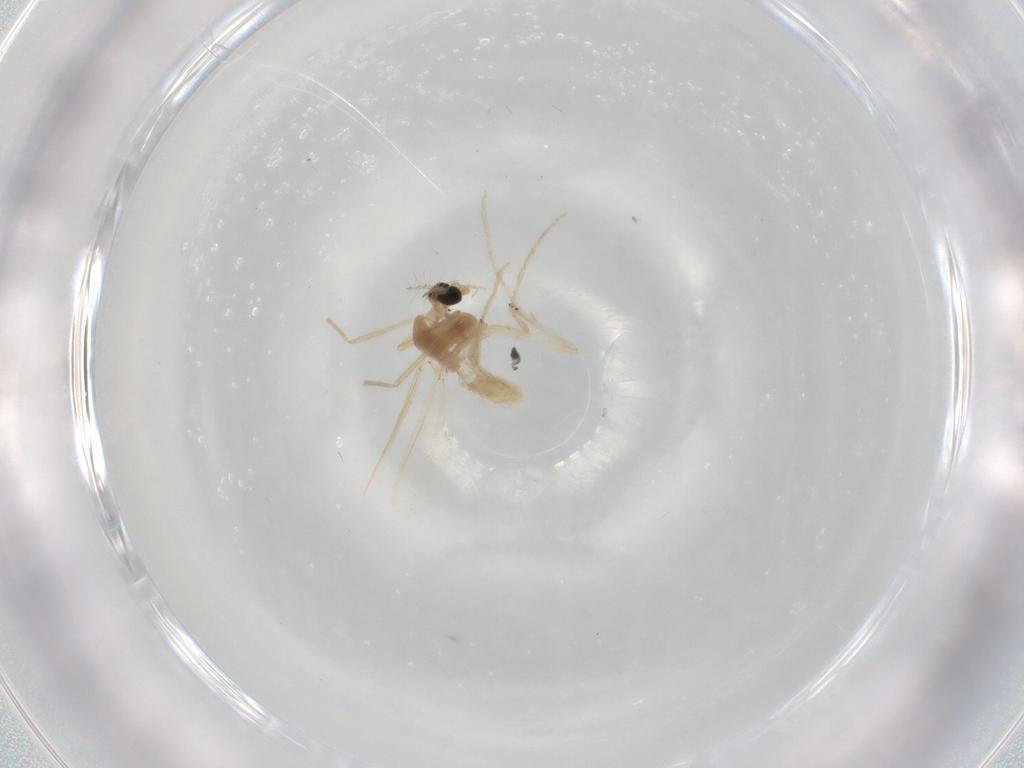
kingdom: Animalia
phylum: Arthropoda
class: Insecta
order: Diptera
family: Chironomidae
